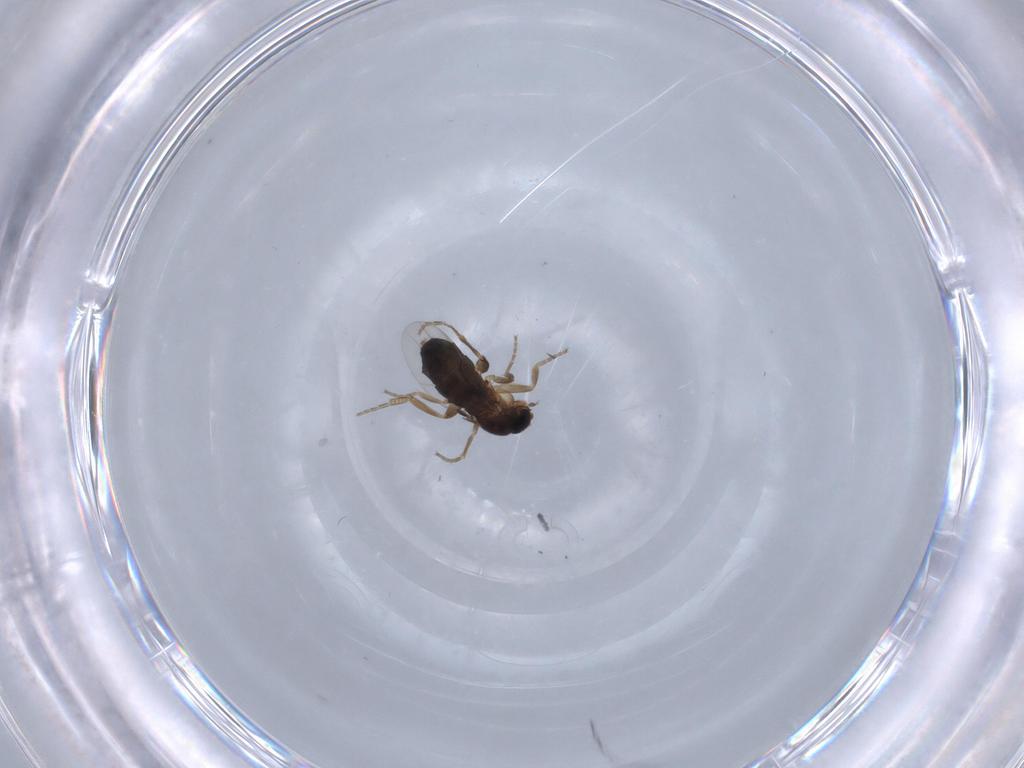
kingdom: Animalia
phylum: Arthropoda
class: Insecta
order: Diptera
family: Phoridae
